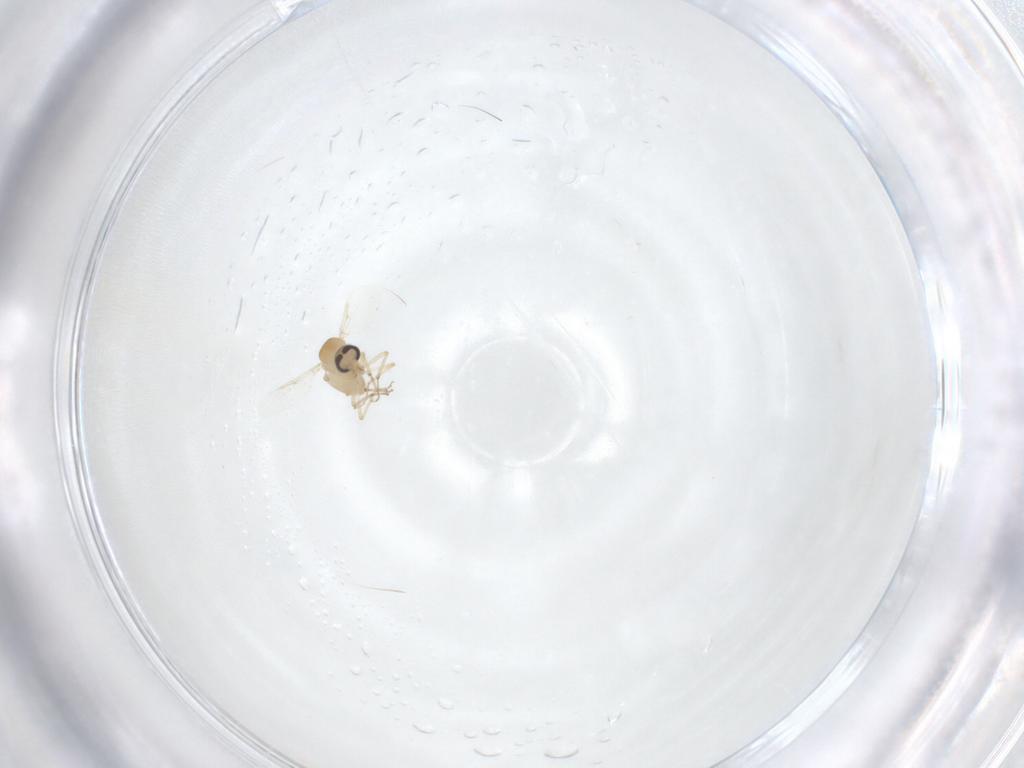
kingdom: Animalia
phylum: Arthropoda
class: Insecta
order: Diptera
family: Ceratopogonidae
